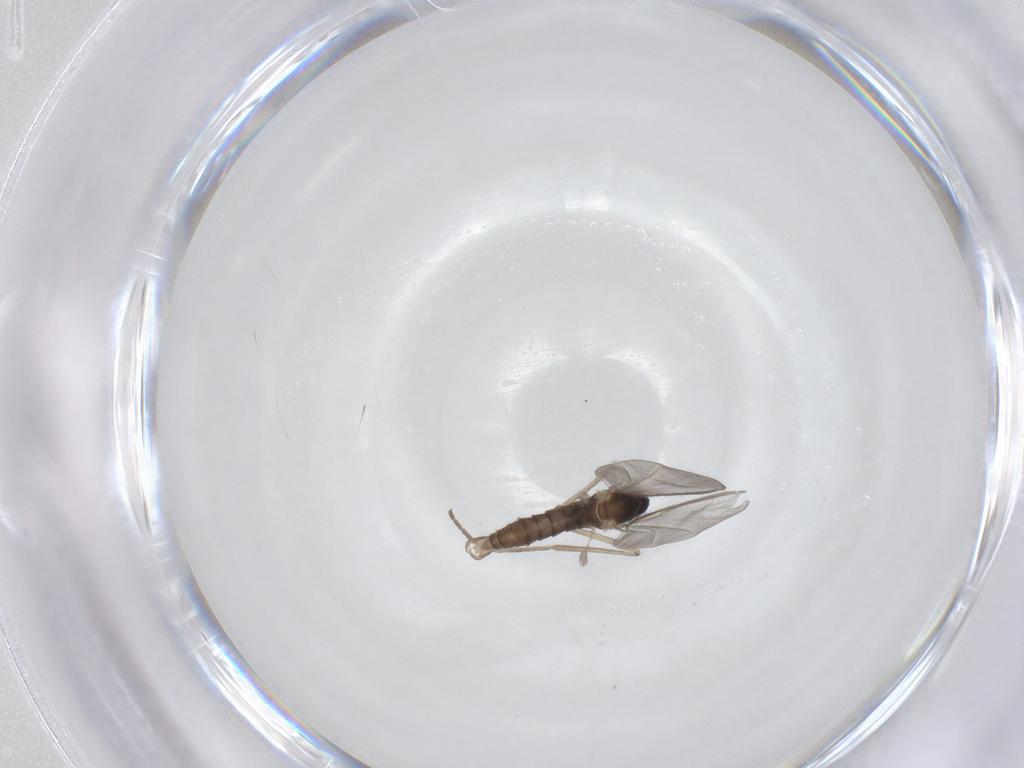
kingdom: Animalia
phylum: Arthropoda
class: Insecta
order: Diptera
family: Cecidomyiidae
